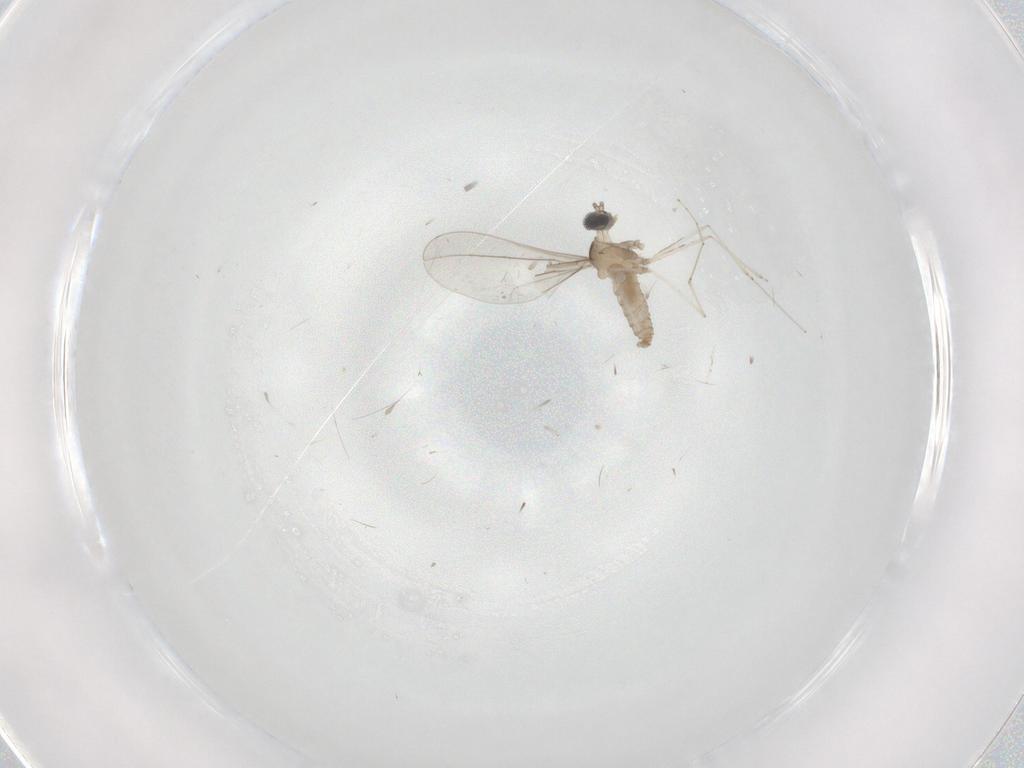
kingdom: Animalia
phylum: Arthropoda
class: Insecta
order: Diptera
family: Cecidomyiidae
